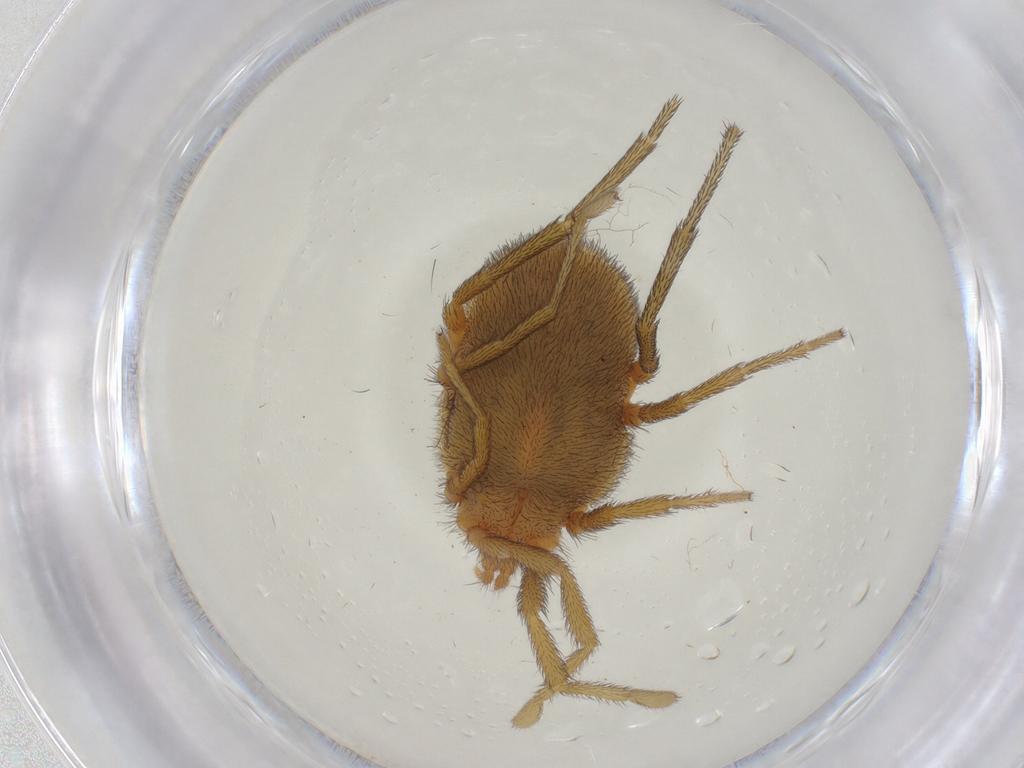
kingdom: Animalia
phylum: Arthropoda
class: Arachnida
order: Trombidiformes
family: Erythraeidae
